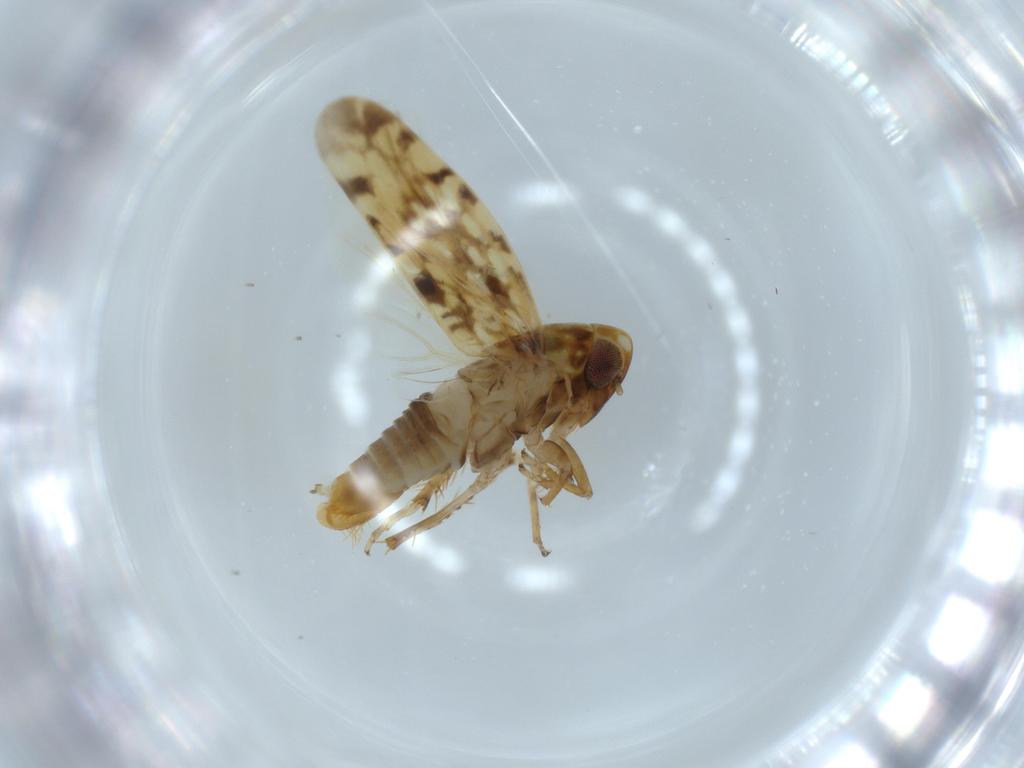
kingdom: Animalia
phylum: Arthropoda
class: Insecta
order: Hemiptera
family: Cicadellidae
